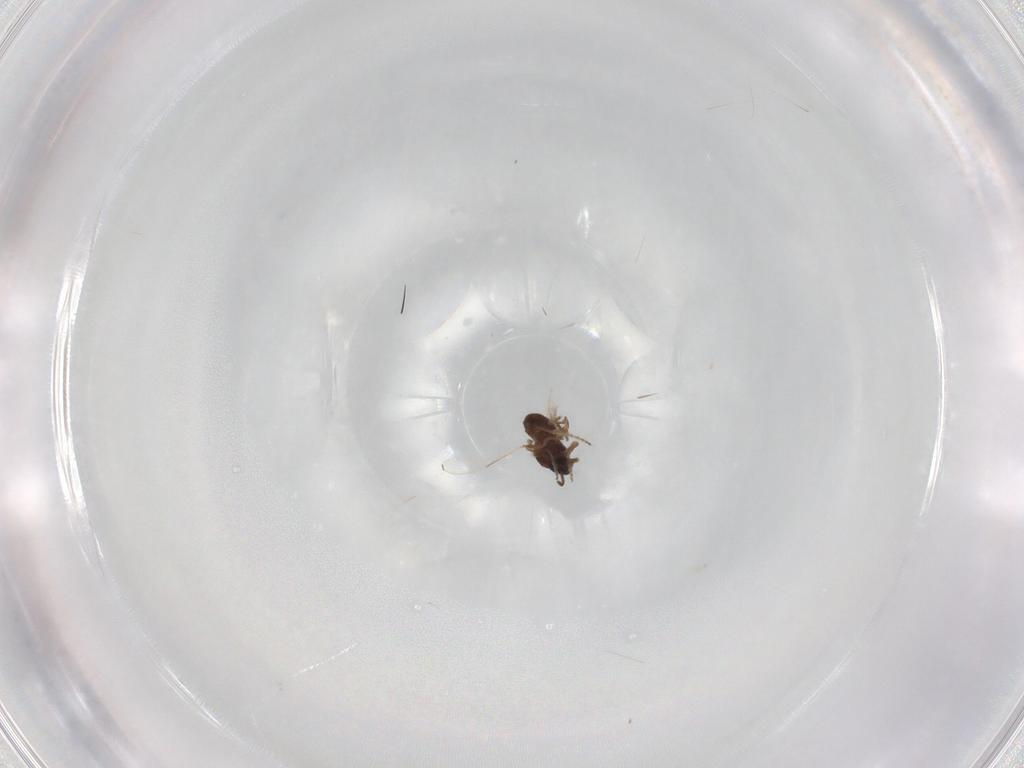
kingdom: Animalia
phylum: Arthropoda
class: Insecta
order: Diptera
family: Ceratopogonidae
